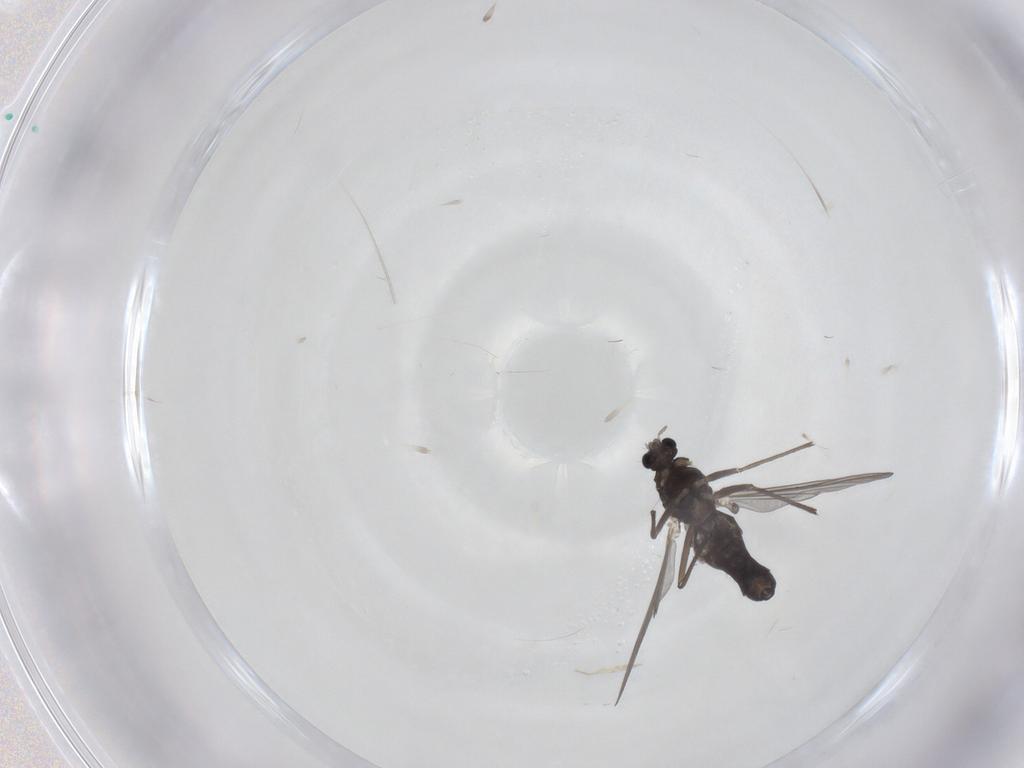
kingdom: Animalia
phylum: Arthropoda
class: Insecta
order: Diptera
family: Chironomidae
